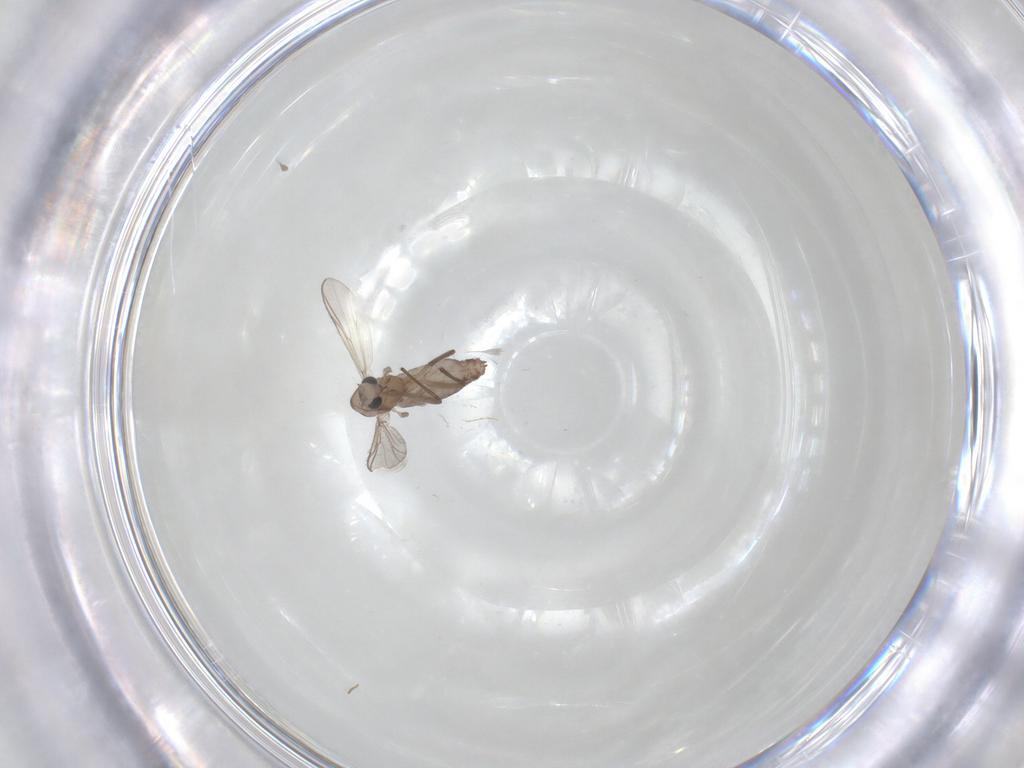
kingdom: Animalia
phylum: Arthropoda
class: Insecta
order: Diptera
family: Chironomidae
